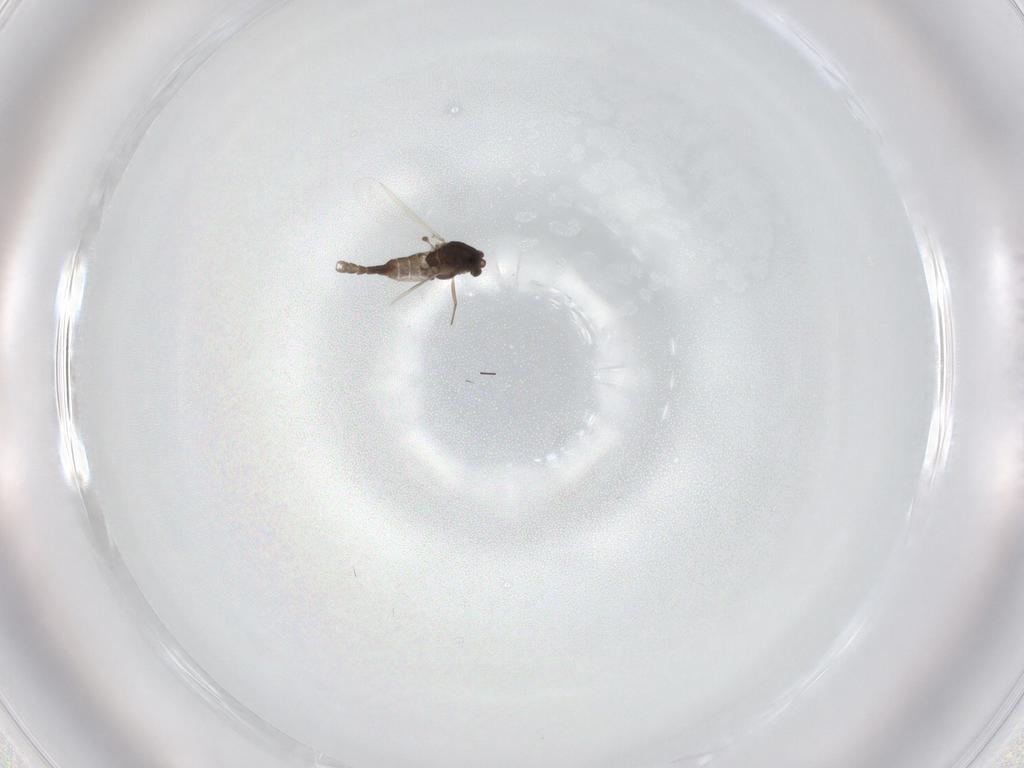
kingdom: Animalia
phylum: Arthropoda
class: Insecta
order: Diptera
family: Chironomidae
